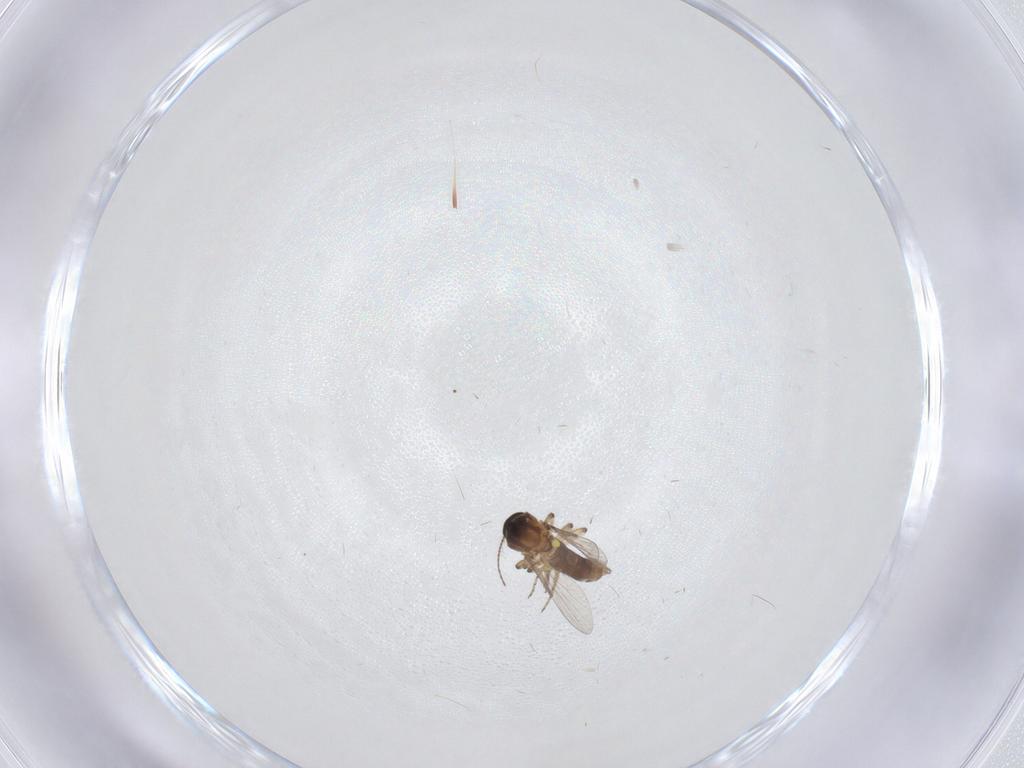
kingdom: Animalia
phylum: Arthropoda
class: Insecta
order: Diptera
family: Ceratopogonidae
